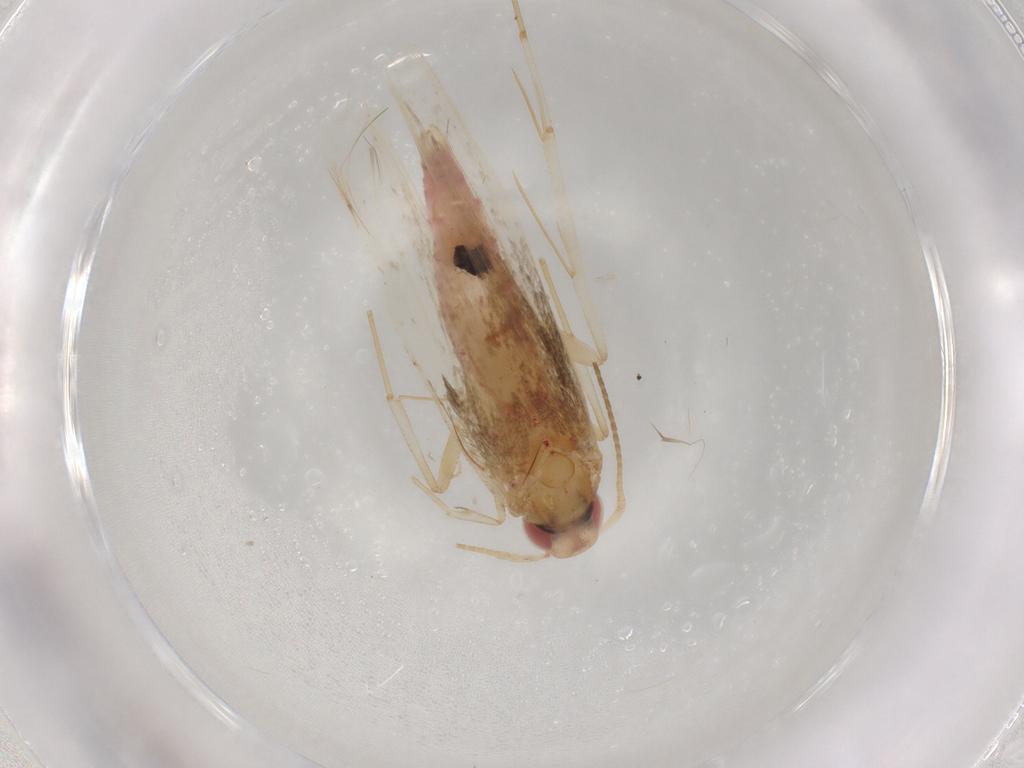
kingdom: Animalia
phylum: Arthropoda
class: Insecta
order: Lepidoptera
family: Cosmopterigidae
